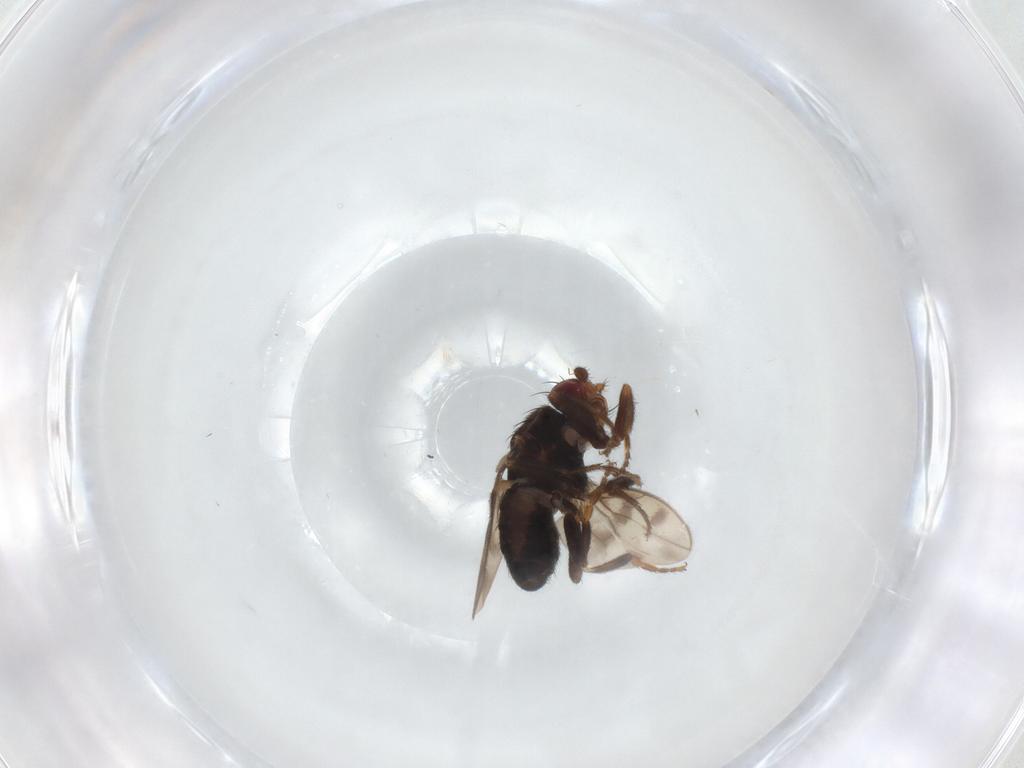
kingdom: Animalia
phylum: Arthropoda
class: Insecta
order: Diptera
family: Sphaeroceridae
